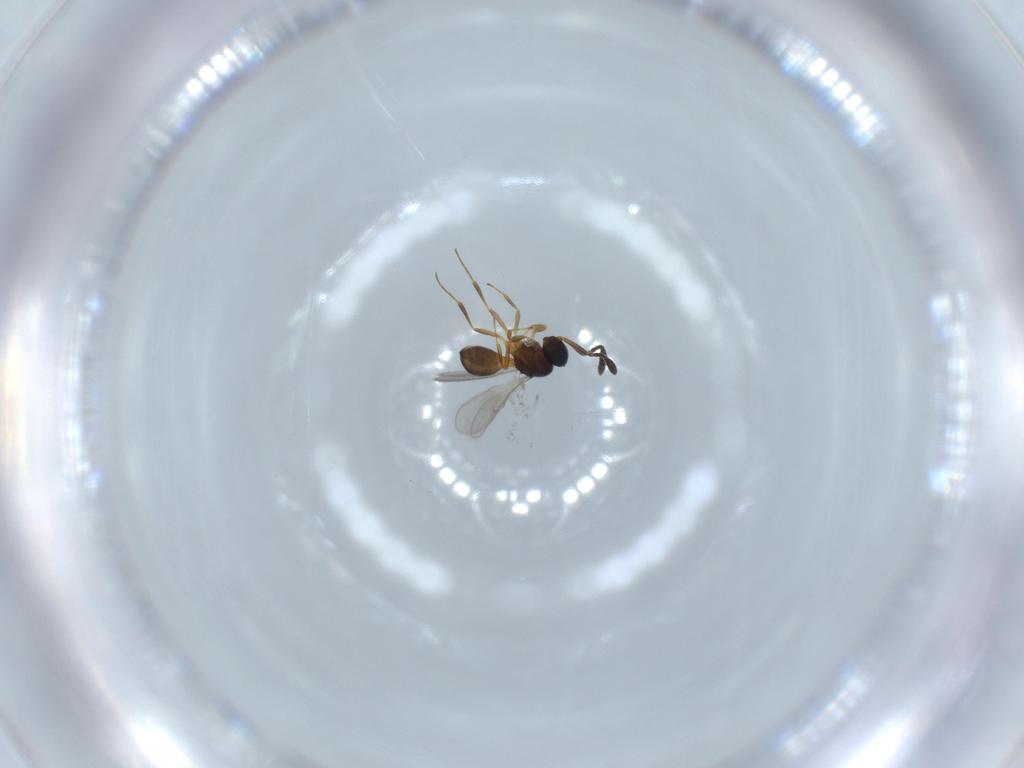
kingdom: Animalia
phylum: Arthropoda
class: Insecta
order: Hymenoptera
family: Scelionidae
